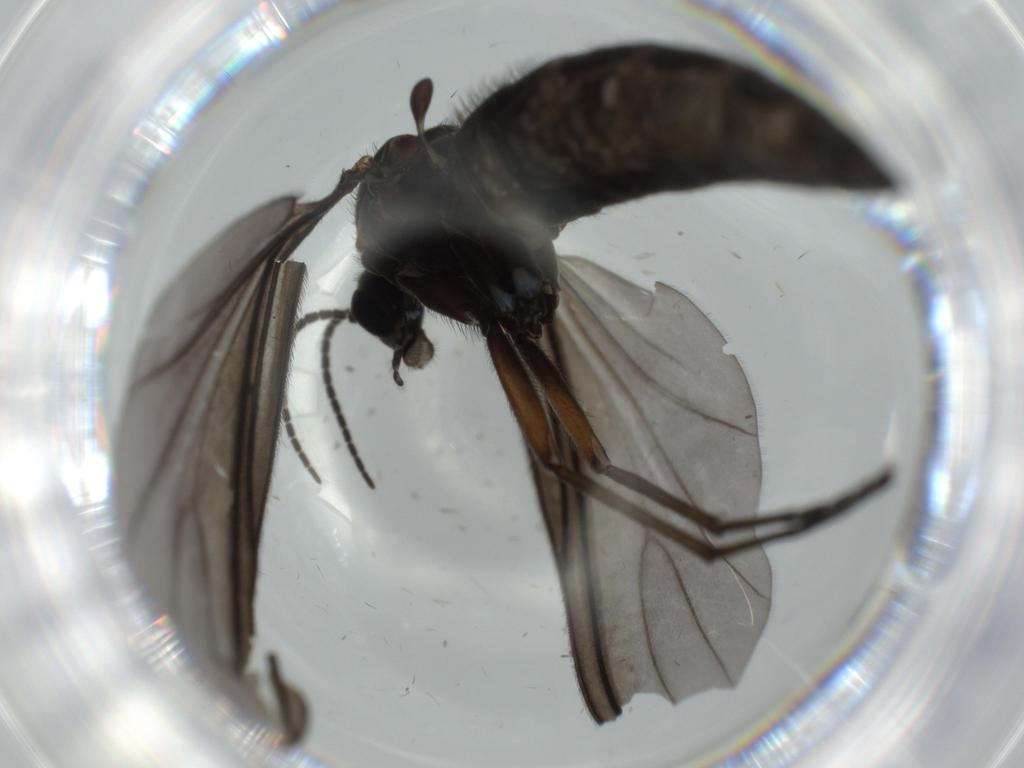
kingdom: Animalia
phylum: Arthropoda
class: Insecta
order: Diptera
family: Sciaridae
